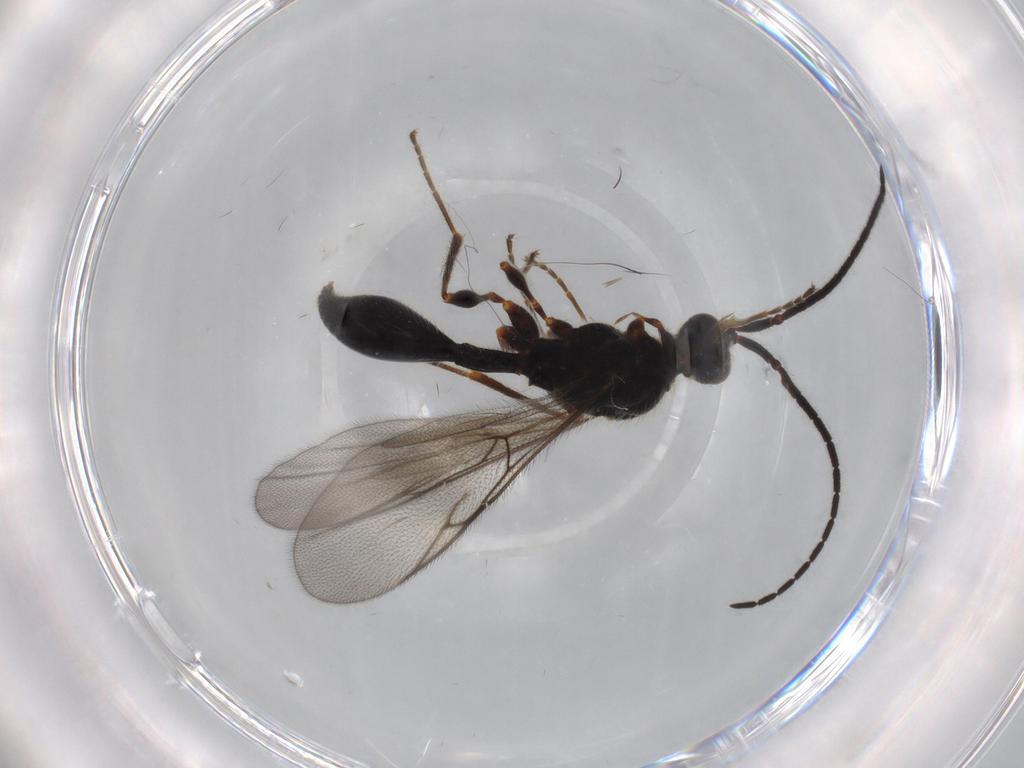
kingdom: Animalia
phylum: Arthropoda
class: Insecta
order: Hymenoptera
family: Diapriidae
